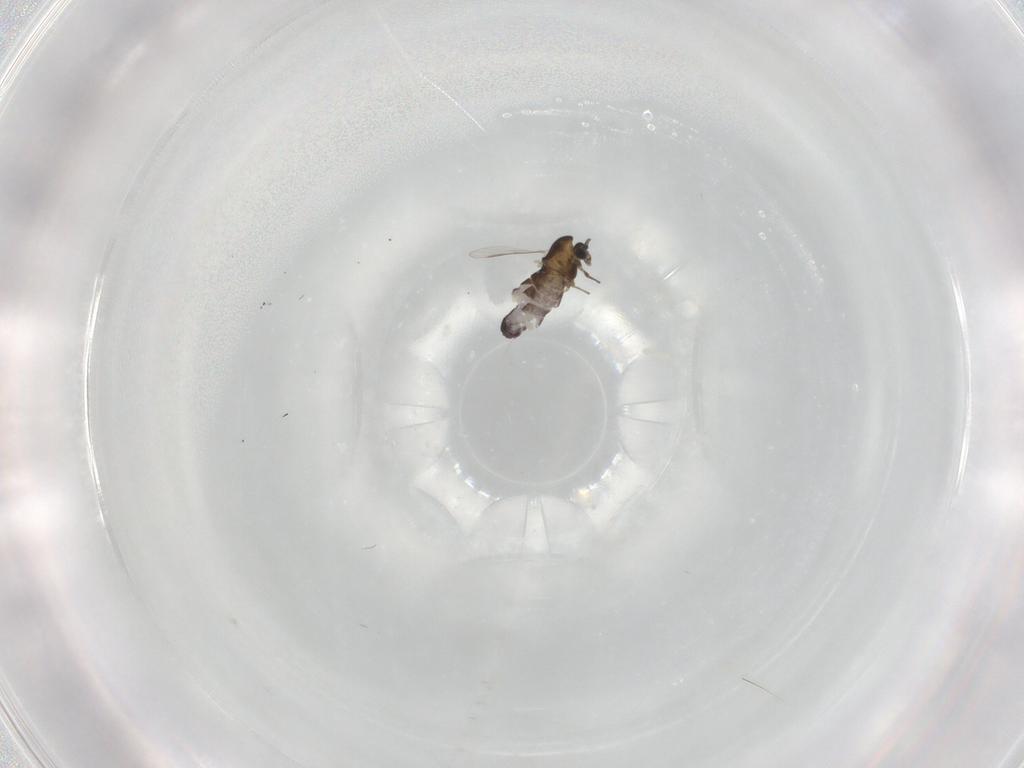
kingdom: Animalia
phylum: Arthropoda
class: Insecta
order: Diptera
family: Chironomidae
